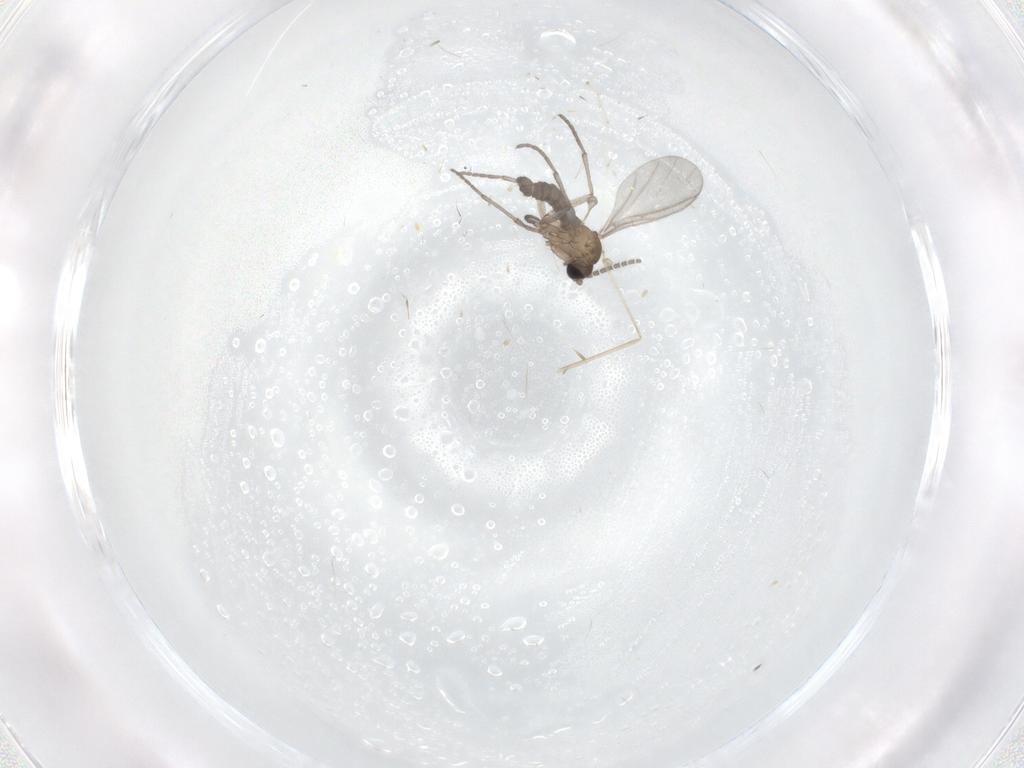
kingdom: Animalia
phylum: Arthropoda
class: Insecta
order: Diptera
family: Sciaridae
